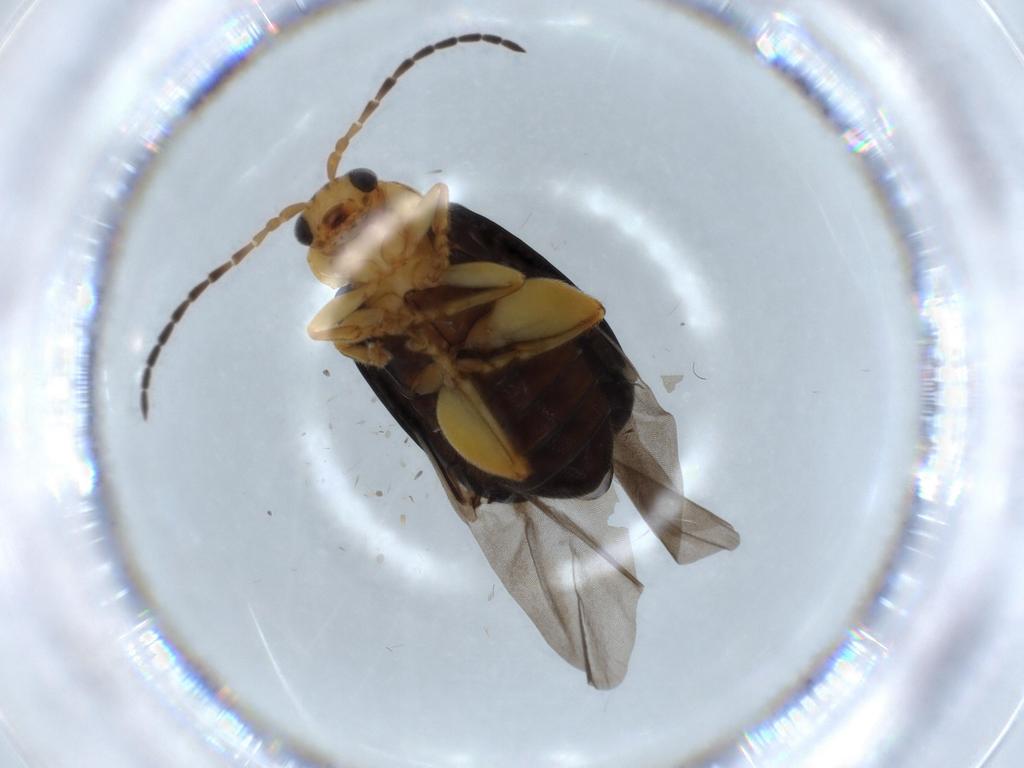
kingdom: Animalia
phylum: Arthropoda
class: Insecta
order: Coleoptera
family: Chrysomelidae
